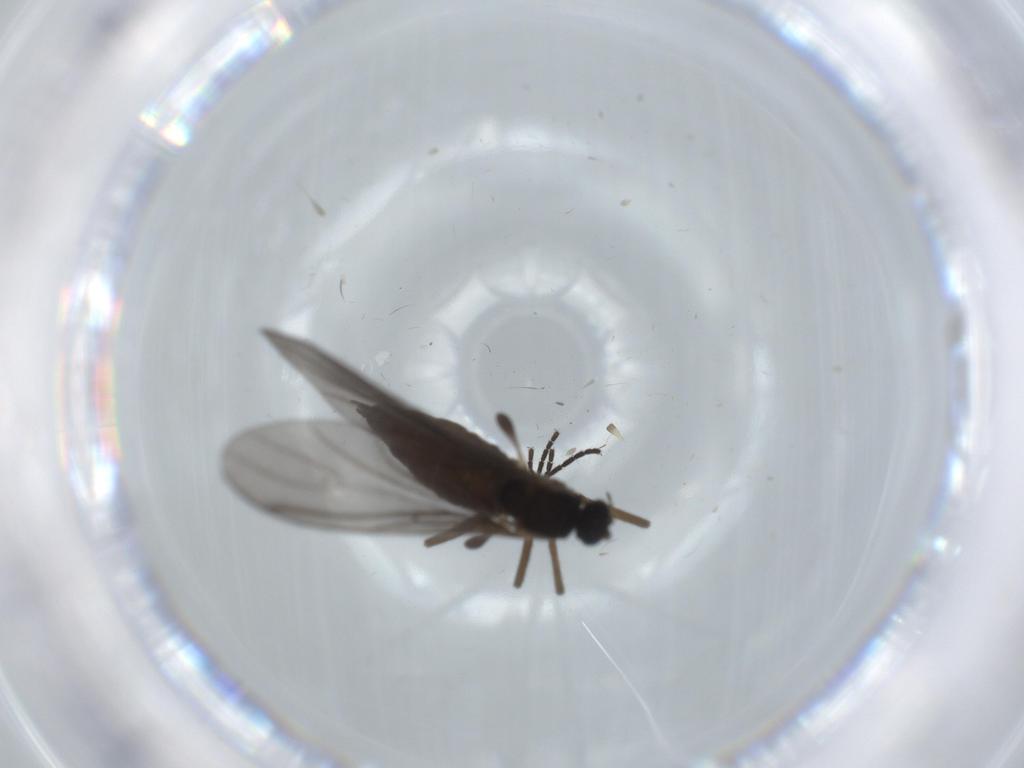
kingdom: Animalia
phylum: Arthropoda
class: Insecta
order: Diptera
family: Sciaridae
